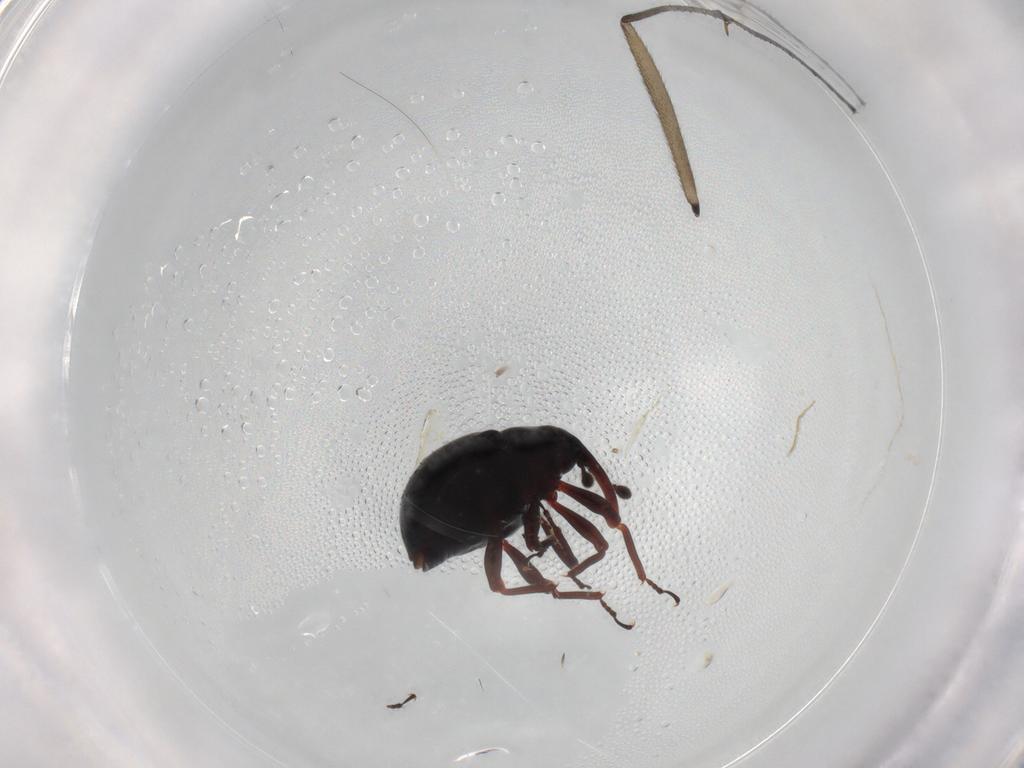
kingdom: Animalia
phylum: Arthropoda
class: Insecta
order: Coleoptera
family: Curculionidae
